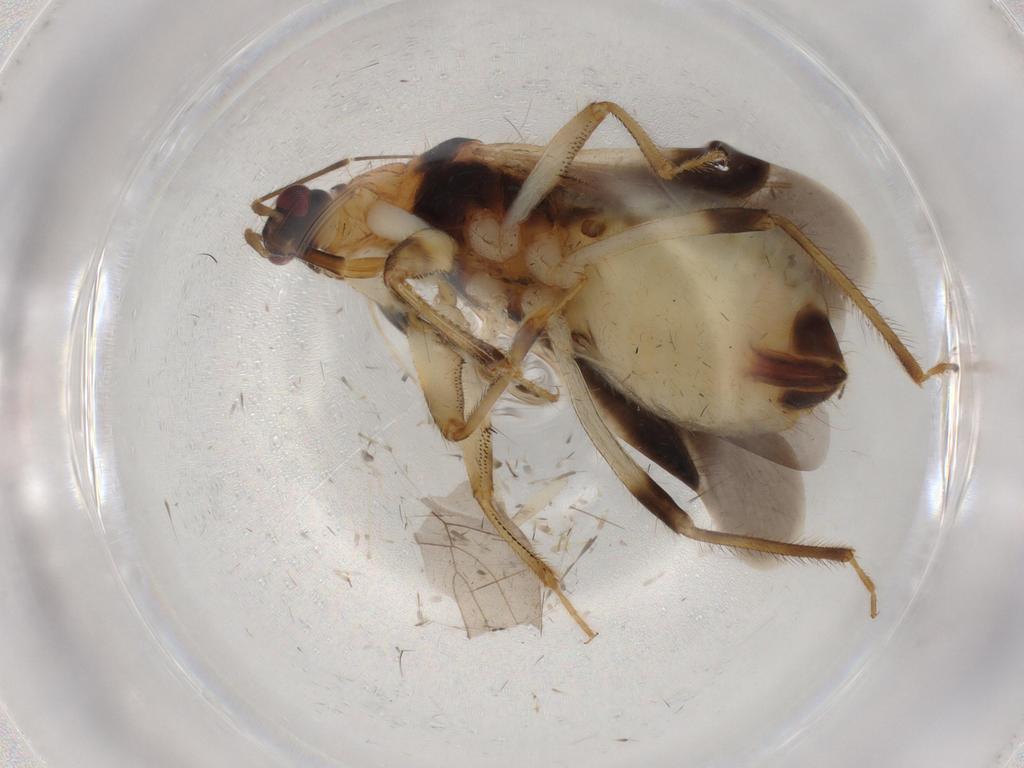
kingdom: Animalia
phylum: Arthropoda
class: Insecta
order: Hemiptera
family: Nabidae
